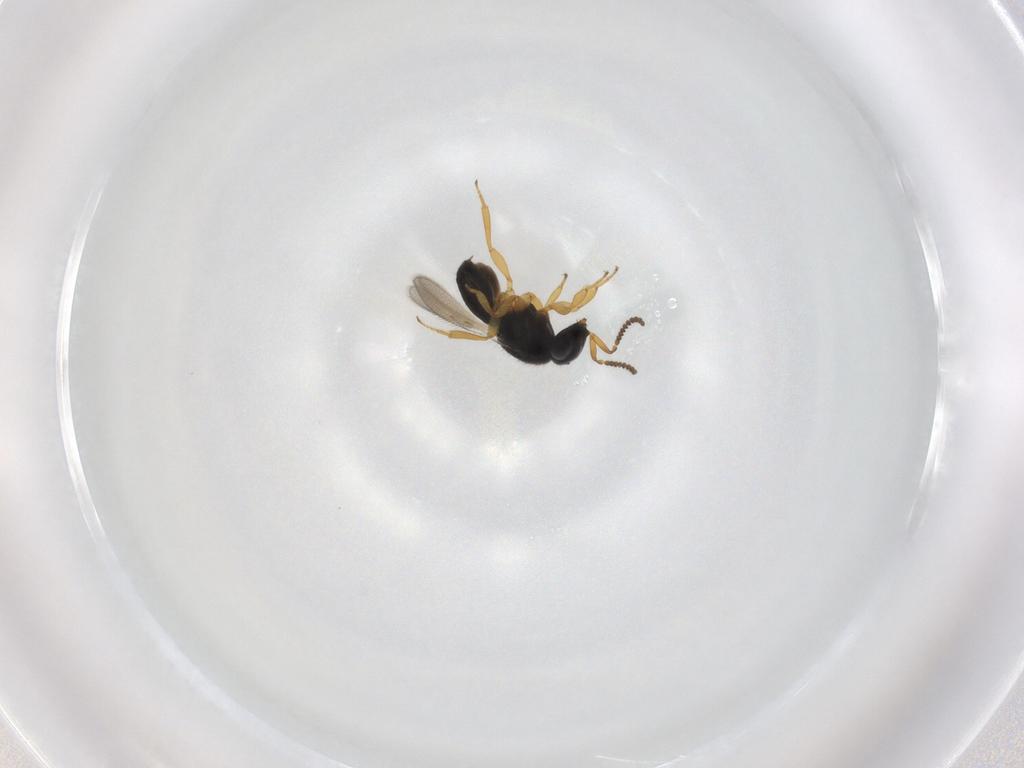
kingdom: Animalia
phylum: Arthropoda
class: Insecta
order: Hymenoptera
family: Scelionidae
